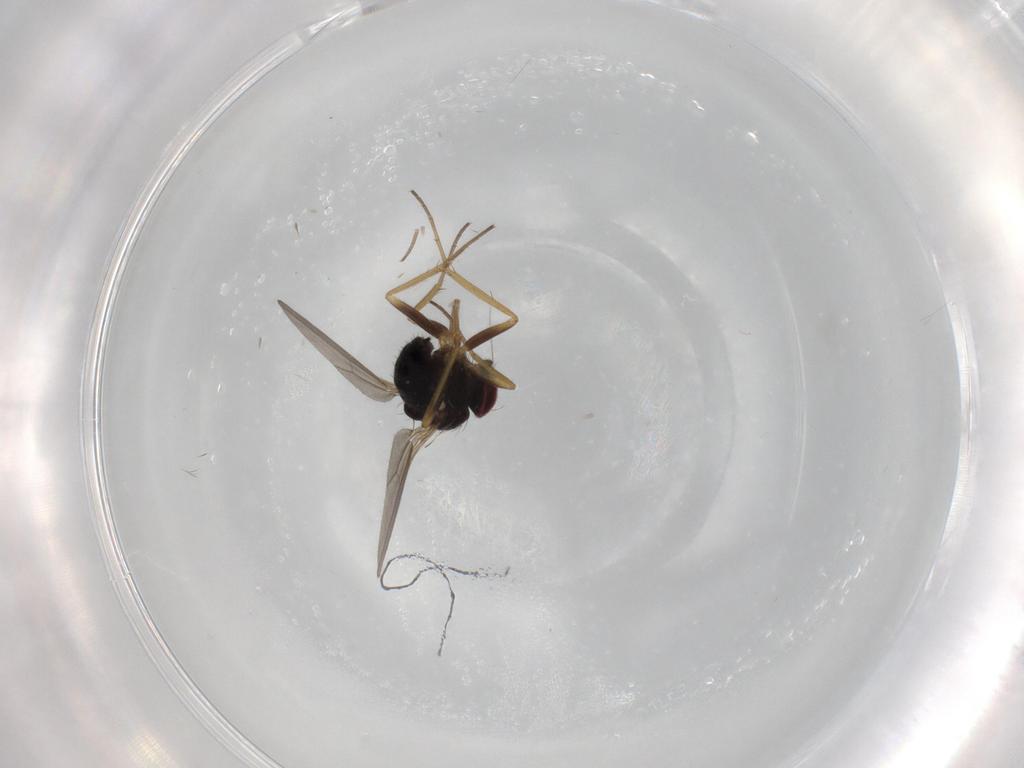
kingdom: Animalia
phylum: Arthropoda
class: Insecta
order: Diptera
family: Dolichopodidae
